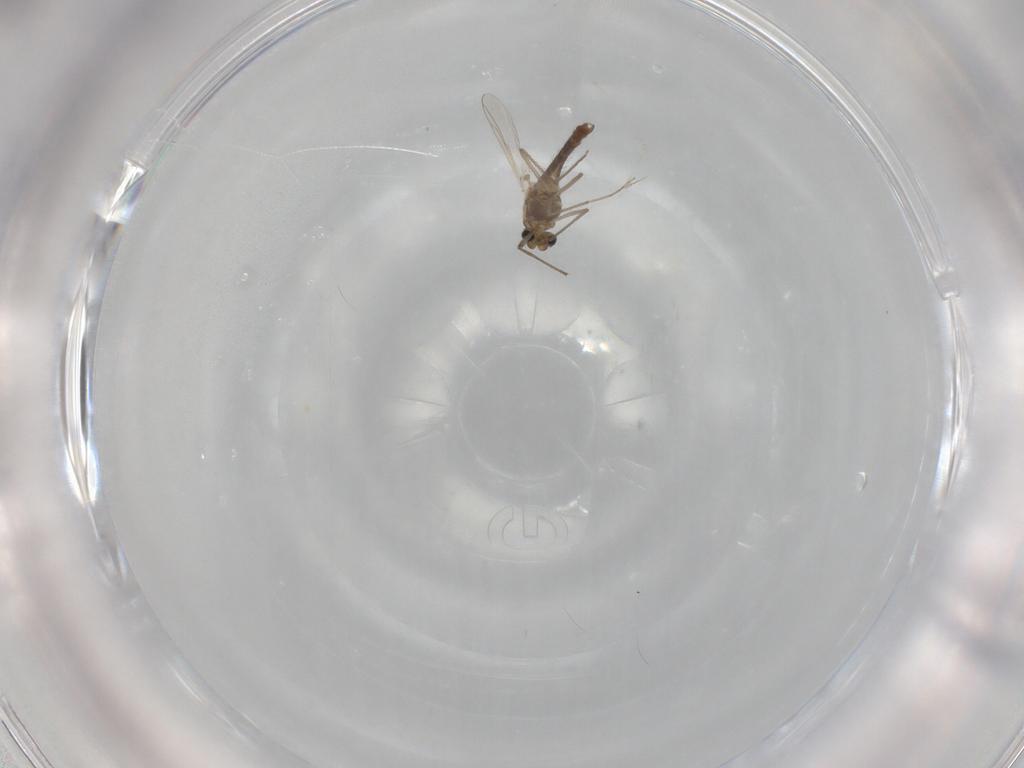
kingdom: Animalia
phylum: Arthropoda
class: Insecta
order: Diptera
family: Chironomidae
